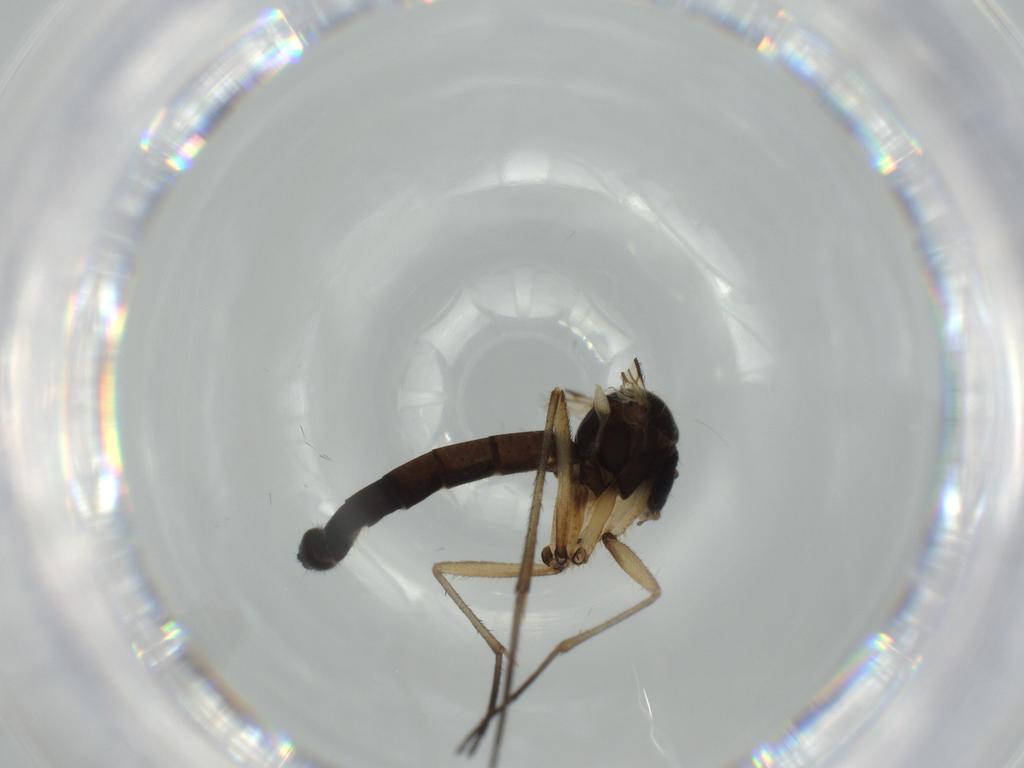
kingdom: Animalia
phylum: Arthropoda
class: Insecta
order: Diptera
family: Chironomidae
